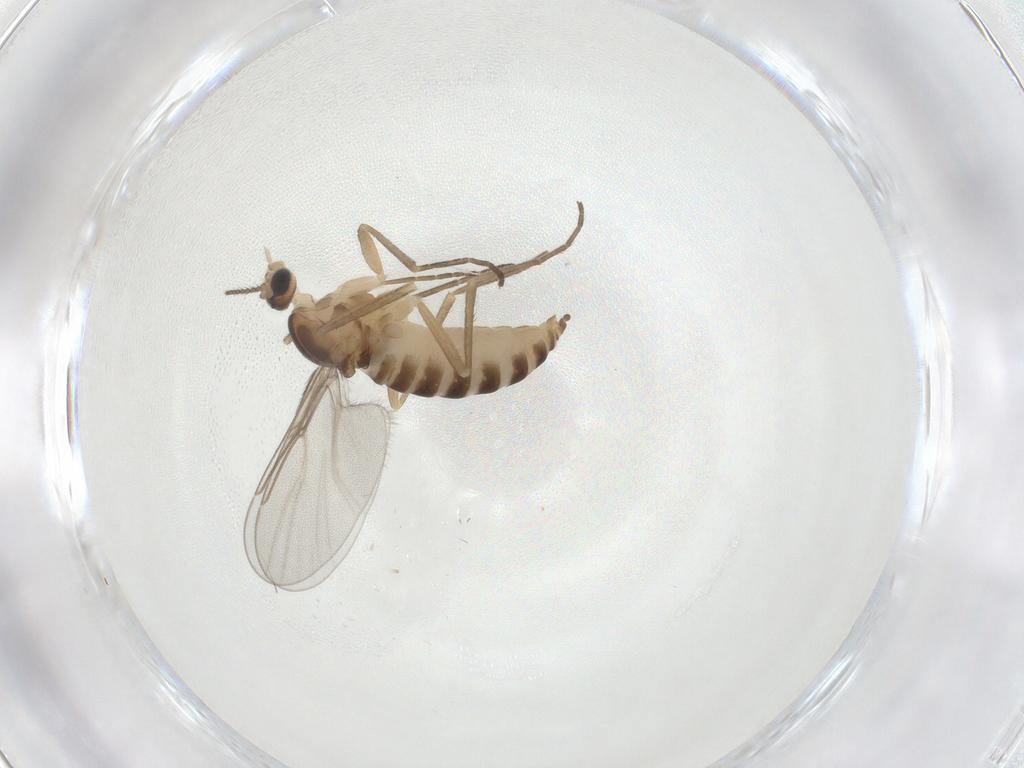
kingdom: Animalia
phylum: Arthropoda
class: Insecta
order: Diptera
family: Cecidomyiidae
